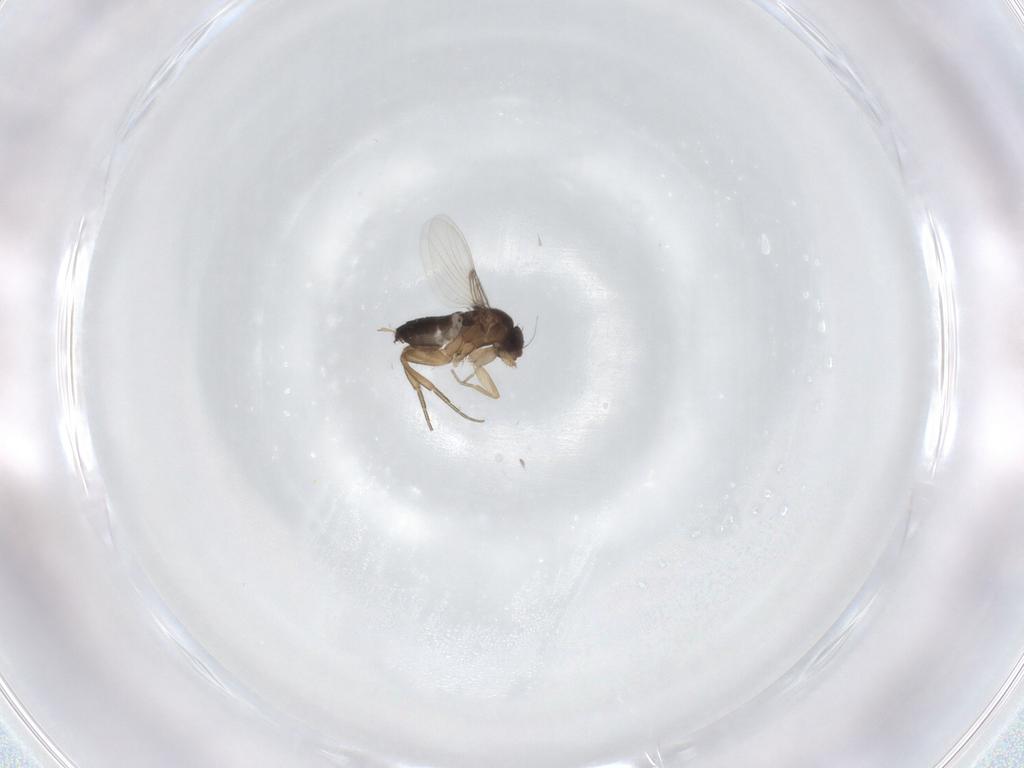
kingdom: Animalia
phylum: Arthropoda
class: Insecta
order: Diptera
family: Phoridae
